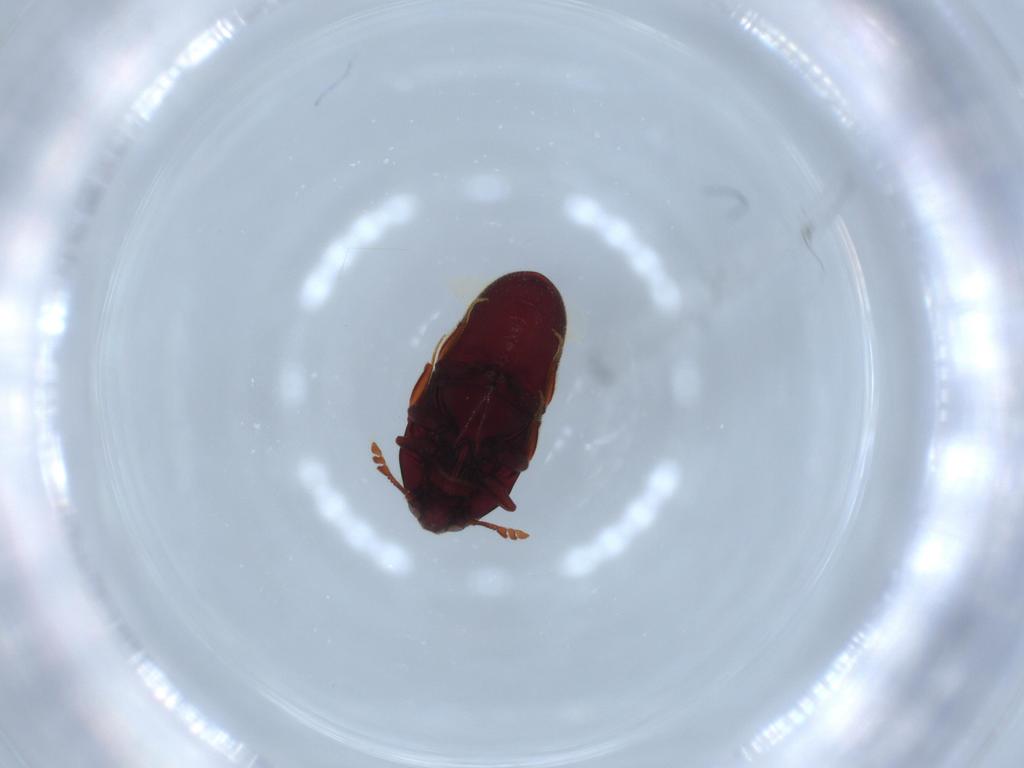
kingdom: Animalia
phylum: Arthropoda
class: Insecta
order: Coleoptera
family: Throscidae
